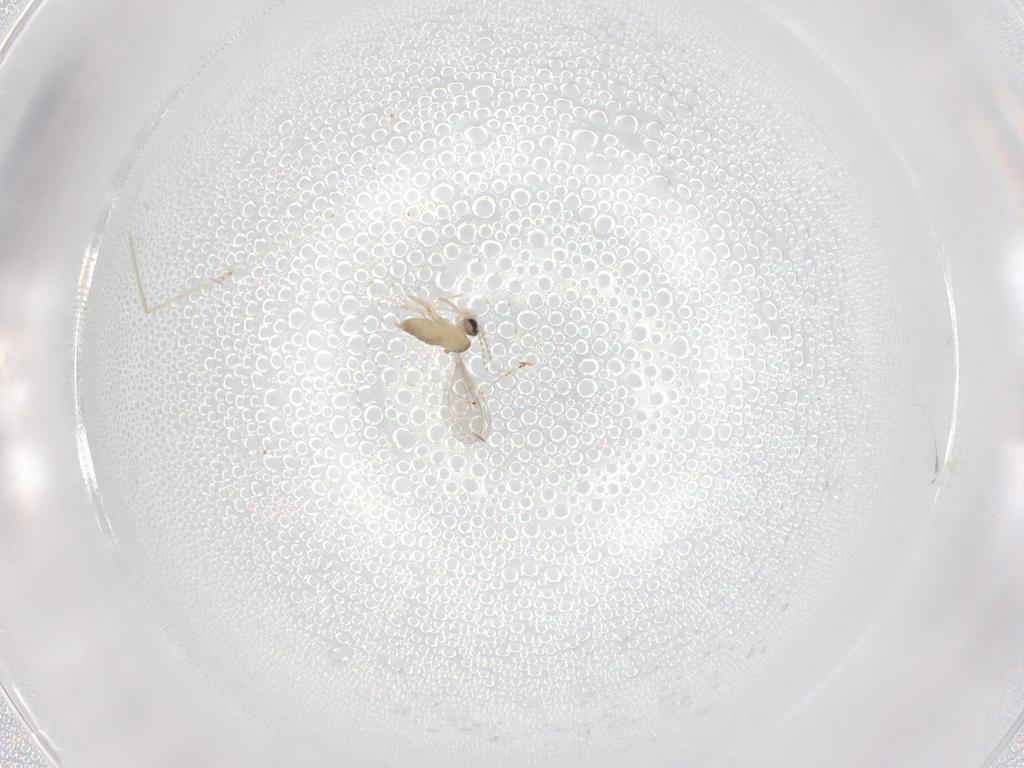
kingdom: Animalia
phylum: Arthropoda
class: Insecta
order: Diptera
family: Cecidomyiidae
